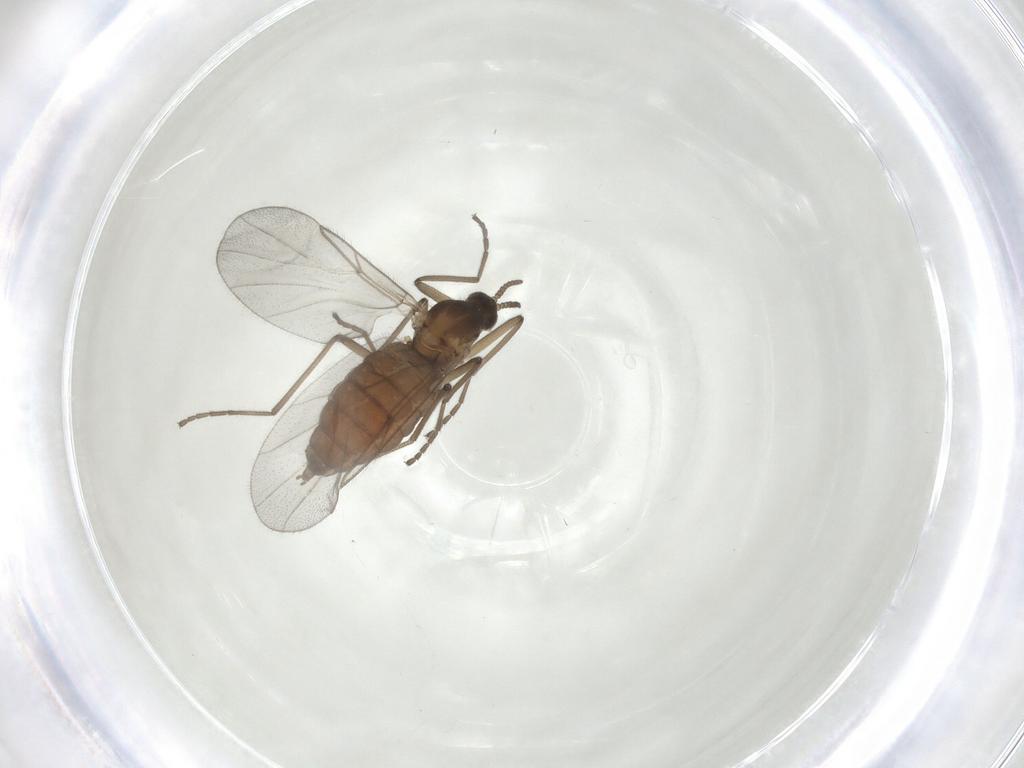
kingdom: Animalia
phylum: Arthropoda
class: Insecta
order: Diptera
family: Cecidomyiidae
